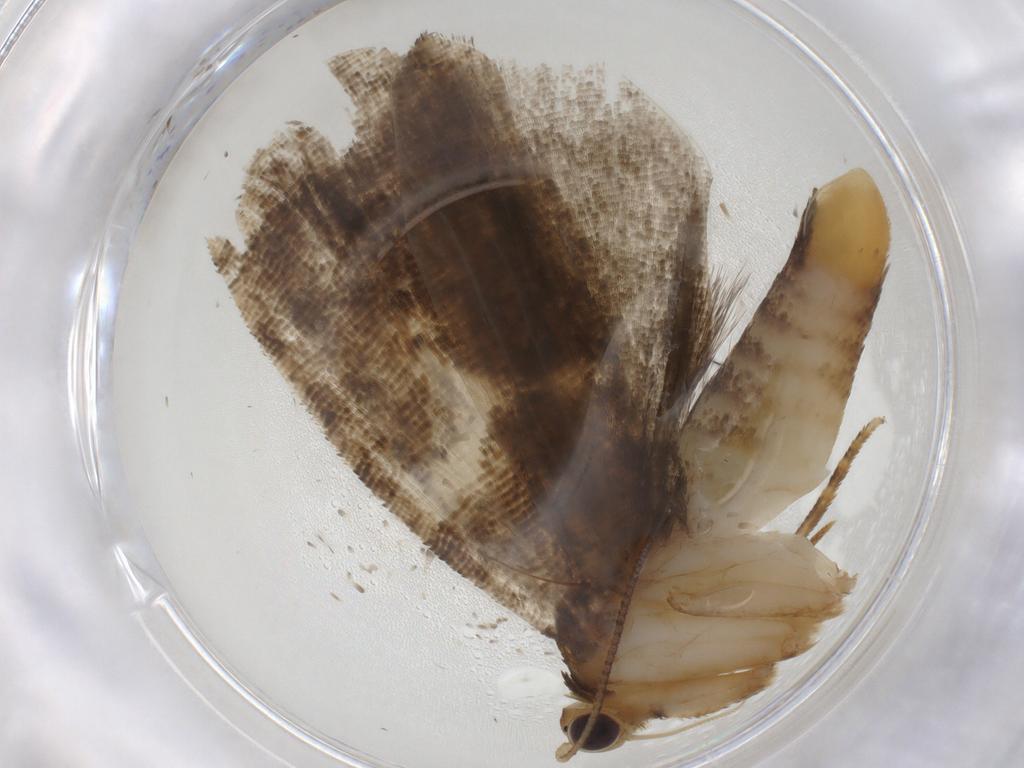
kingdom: Animalia
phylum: Arthropoda
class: Insecta
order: Lepidoptera
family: Tortricidae
